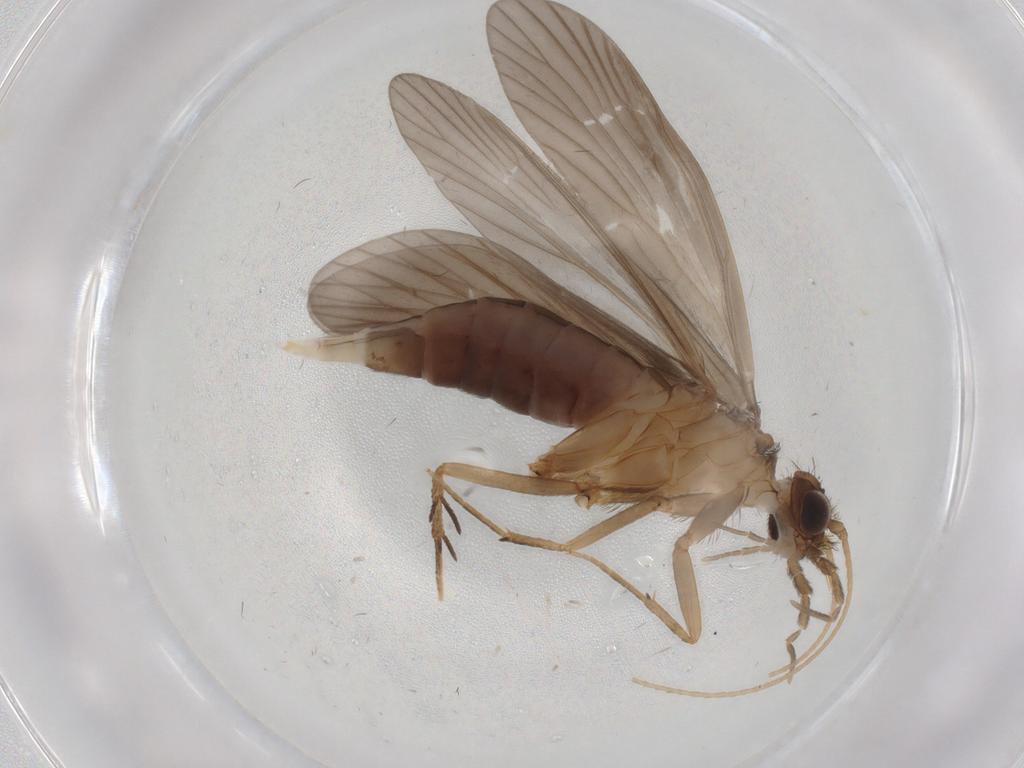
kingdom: Animalia
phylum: Arthropoda
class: Insecta
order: Trichoptera
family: Philopotamidae
